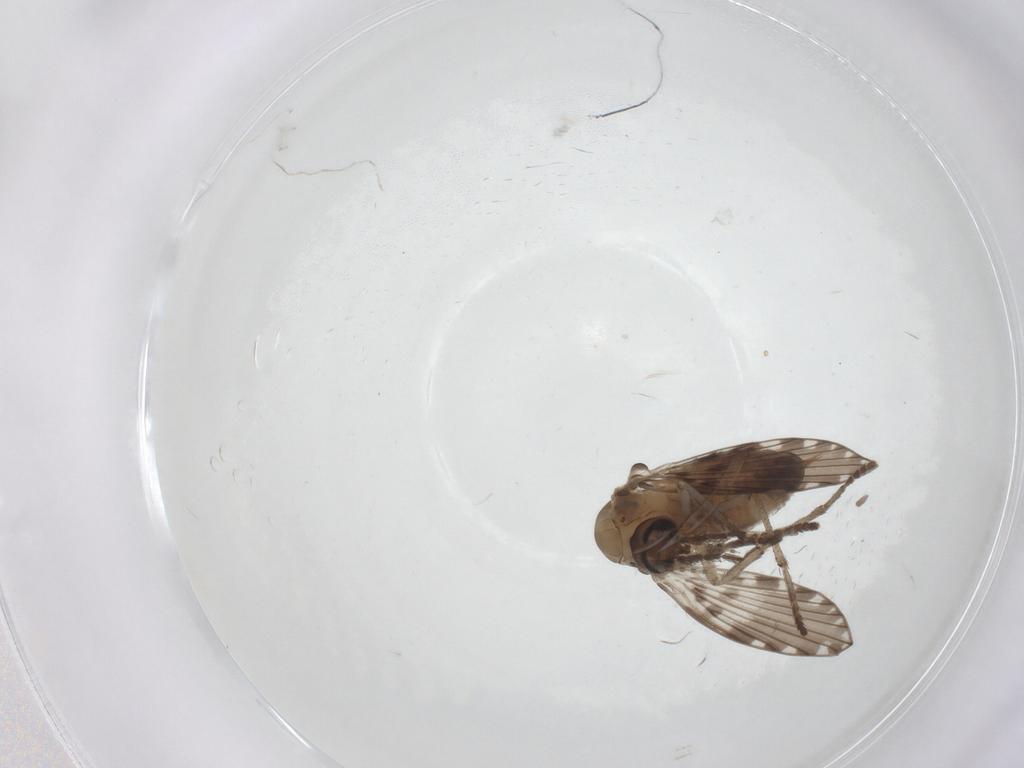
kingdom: Animalia
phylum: Arthropoda
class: Insecta
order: Diptera
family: Psychodidae
